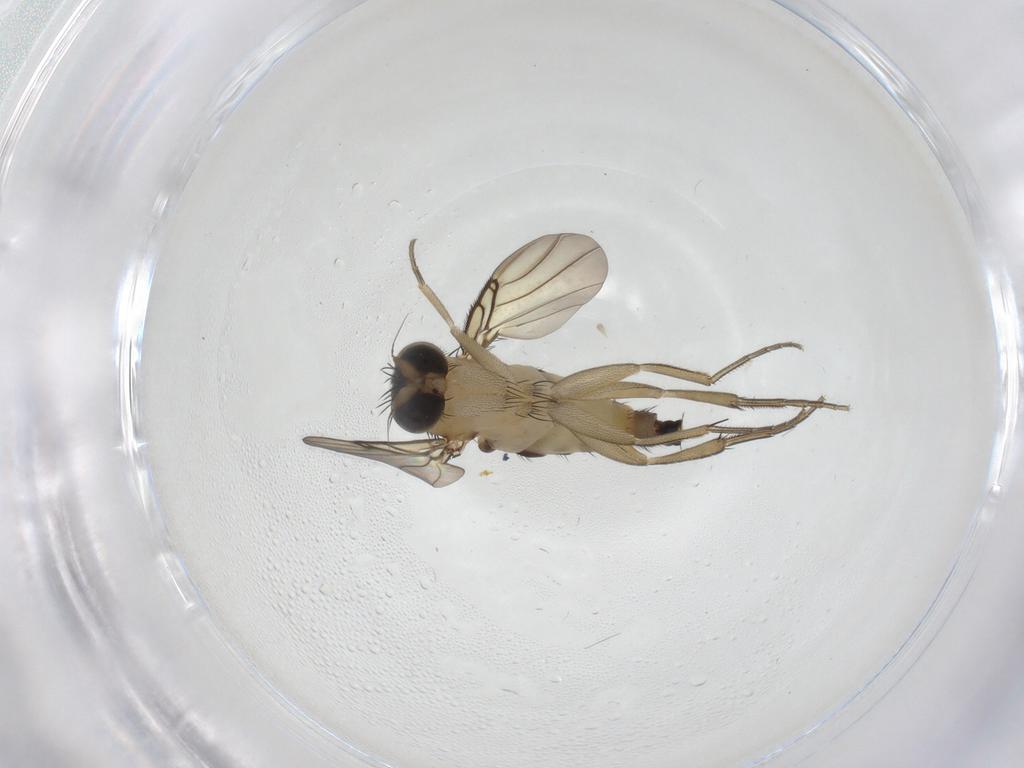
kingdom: Animalia
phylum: Arthropoda
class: Insecta
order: Diptera
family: Phoridae
